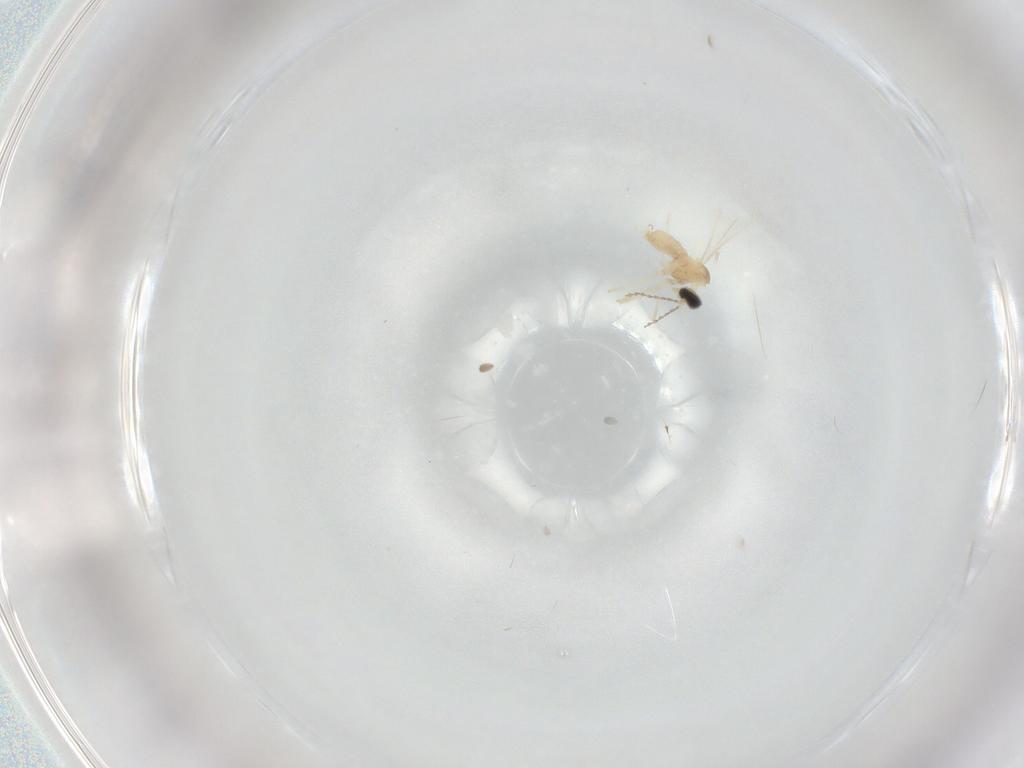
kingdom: Animalia
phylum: Arthropoda
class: Insecta
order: Diptera
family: Cecidomyiidae
